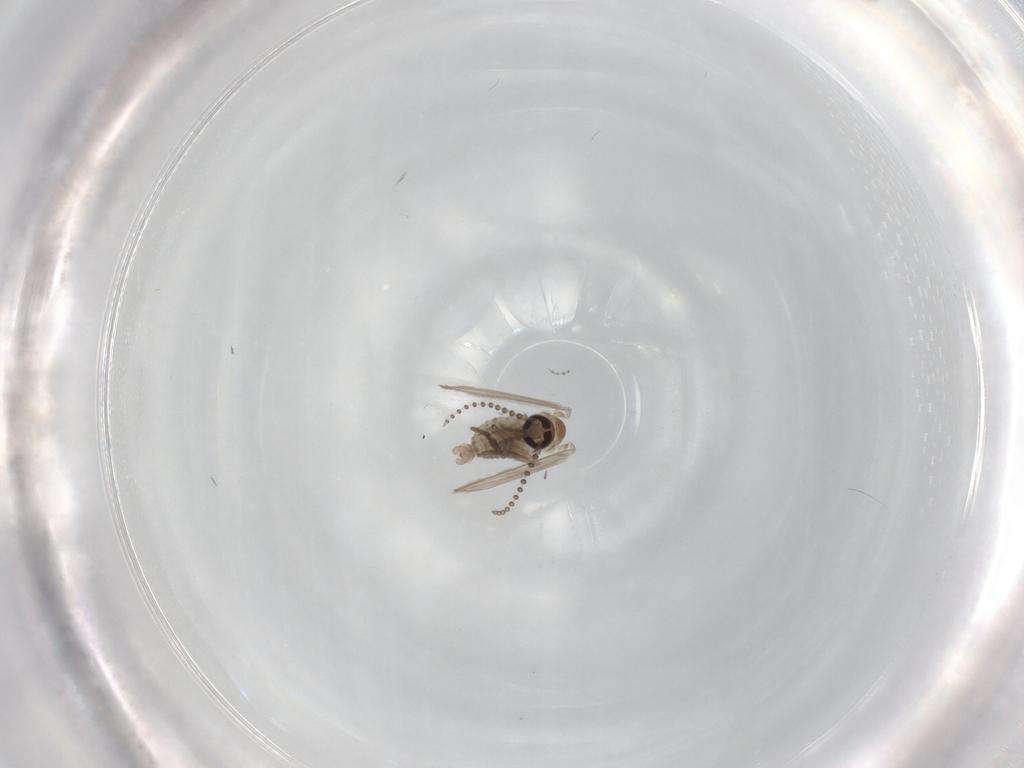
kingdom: Animalia
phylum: Arthropoda
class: Insecta
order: Diptera
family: Psychodidae
